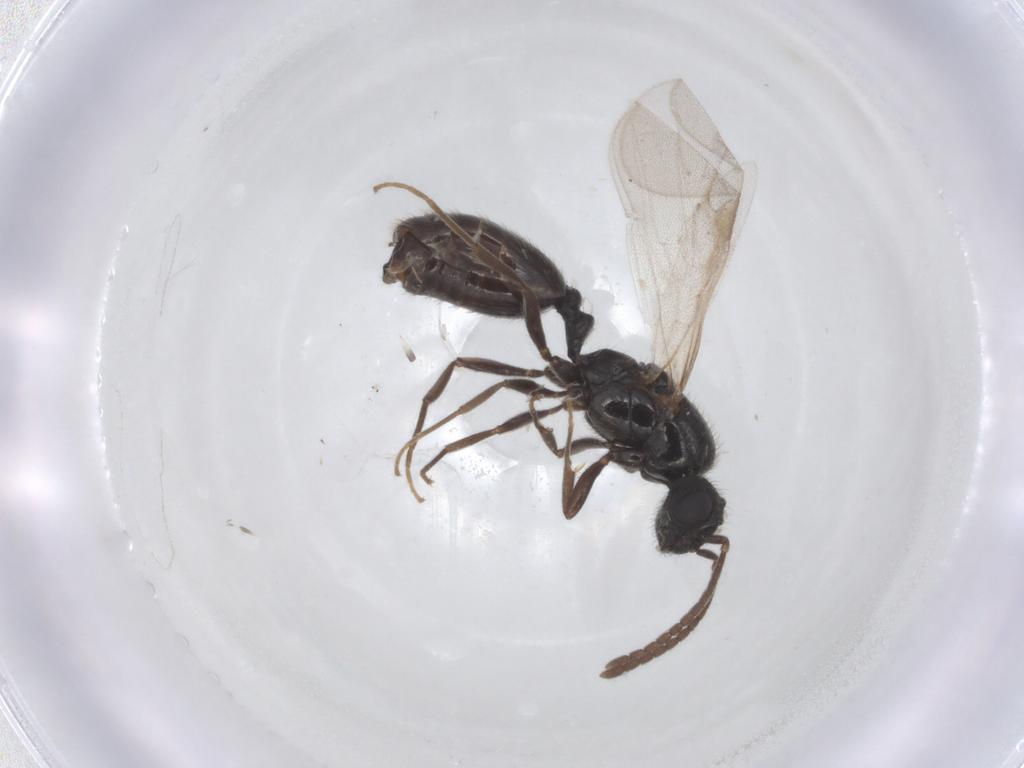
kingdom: Animalia
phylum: Arthropoda
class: Insecta
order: Hymenoptera
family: Formicidae
